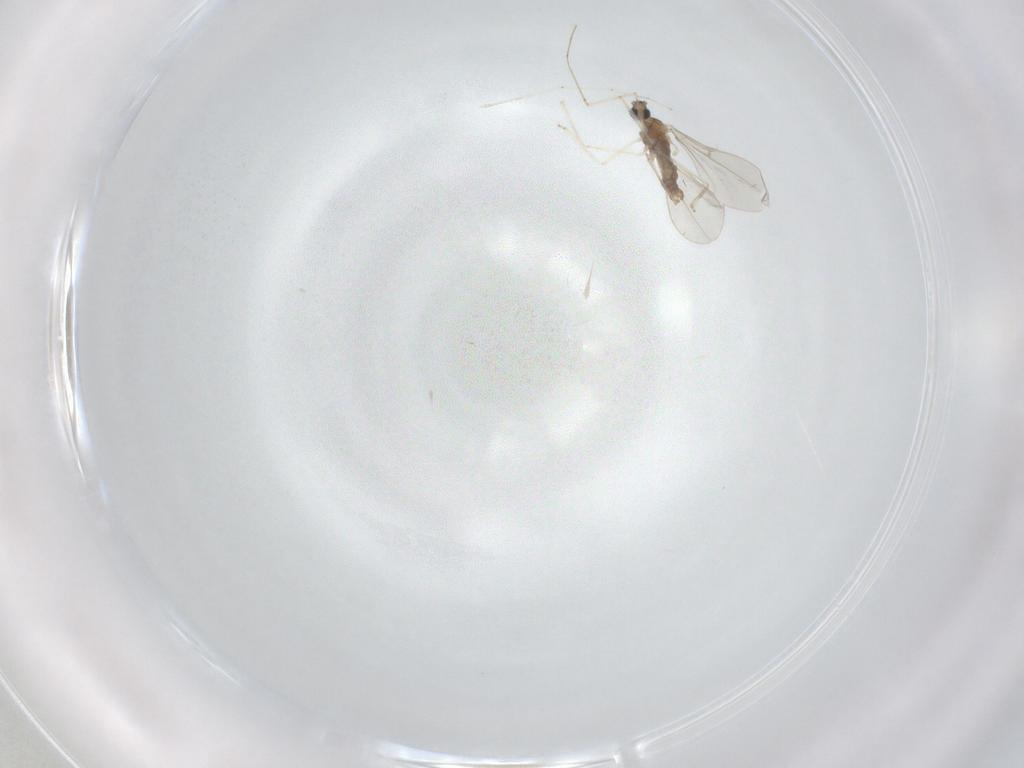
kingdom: Animalia
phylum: Arthropoda
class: Insecta
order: Diptera
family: Cecidomyiidae
